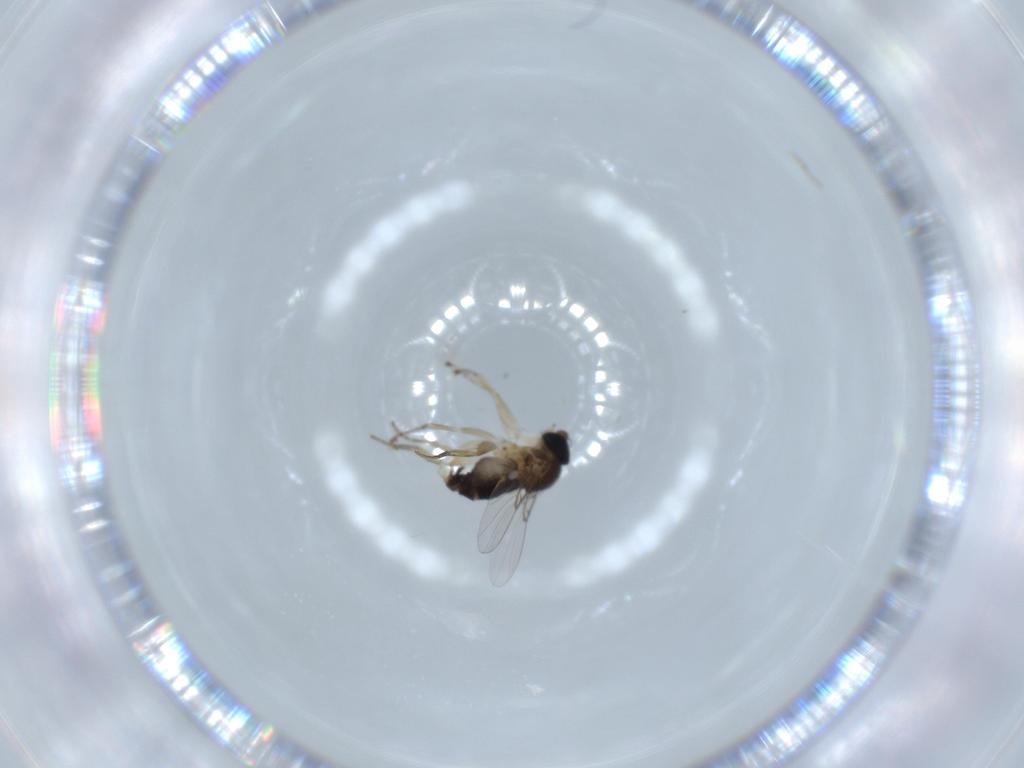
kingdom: Animalia
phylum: Arthropoda
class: Insecta
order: Diptera
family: Phoridae
